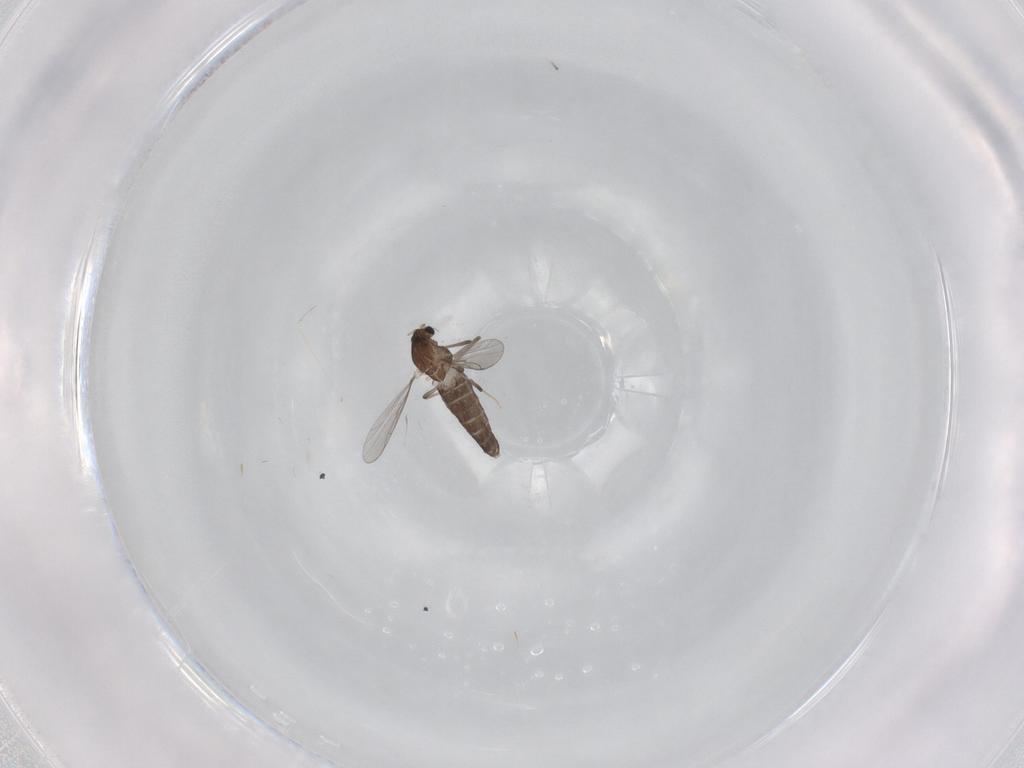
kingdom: Animalia
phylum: Arthropoda
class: Insecta
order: Diptera
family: Chironomidae
